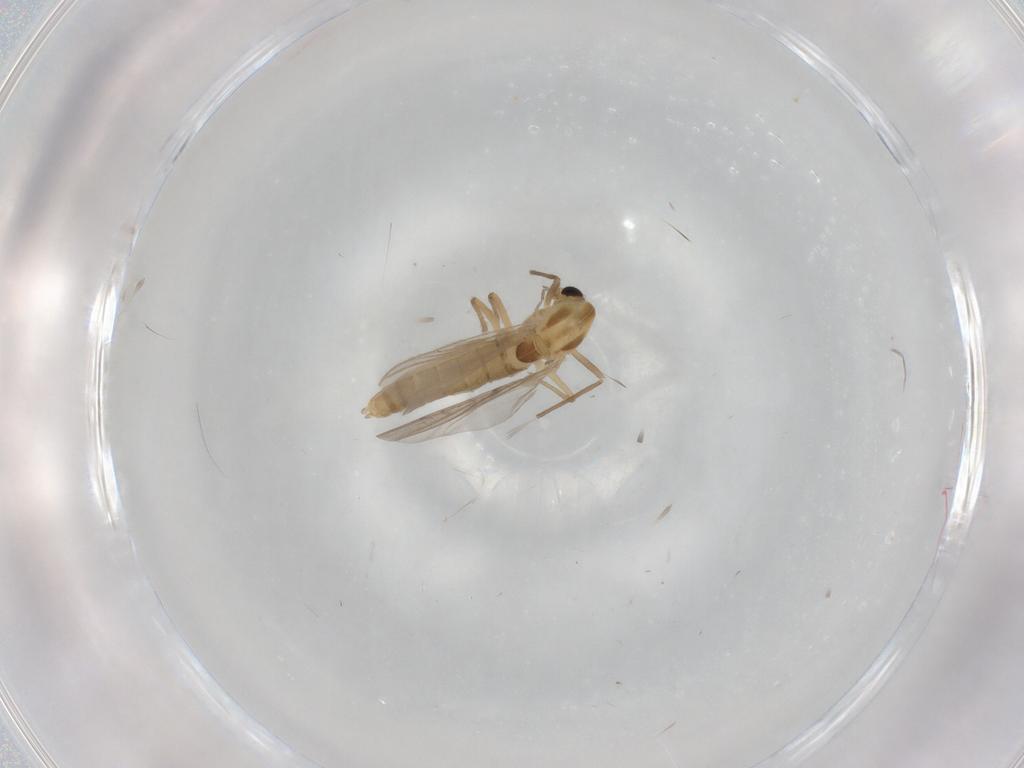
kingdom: Animalia
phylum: Arthropoda
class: Insecta
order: Diptera
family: Chironomidae
